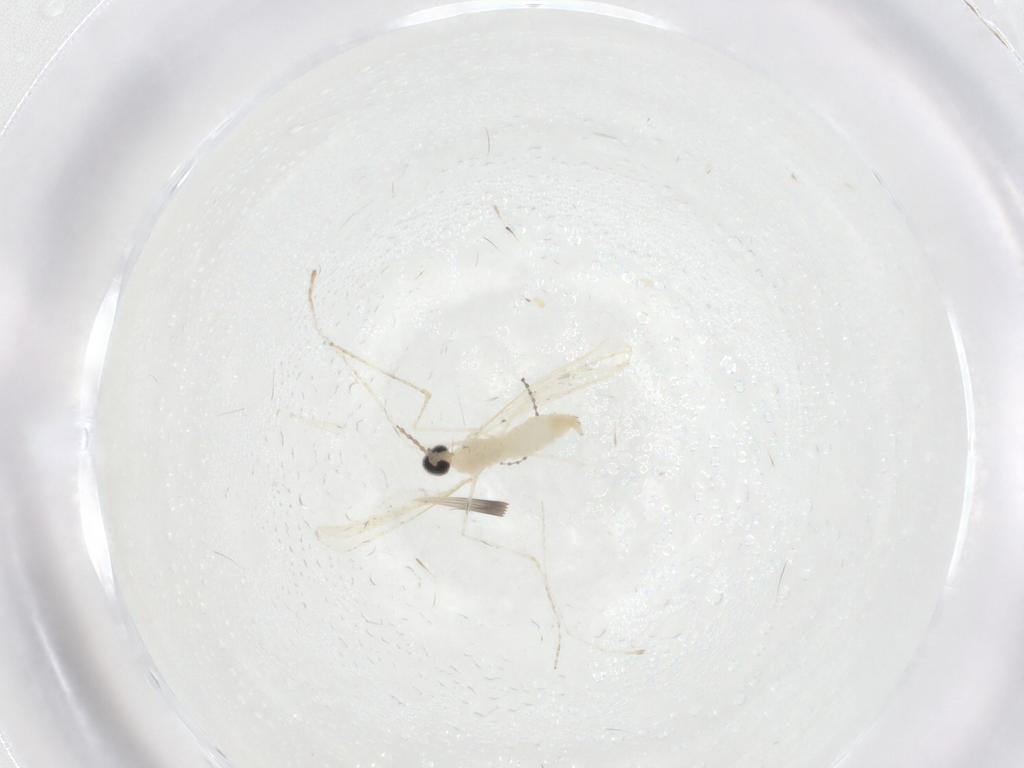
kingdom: Animalia
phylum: Arthropoda
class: Insecta
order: Diptera
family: Cecidomyiidae
